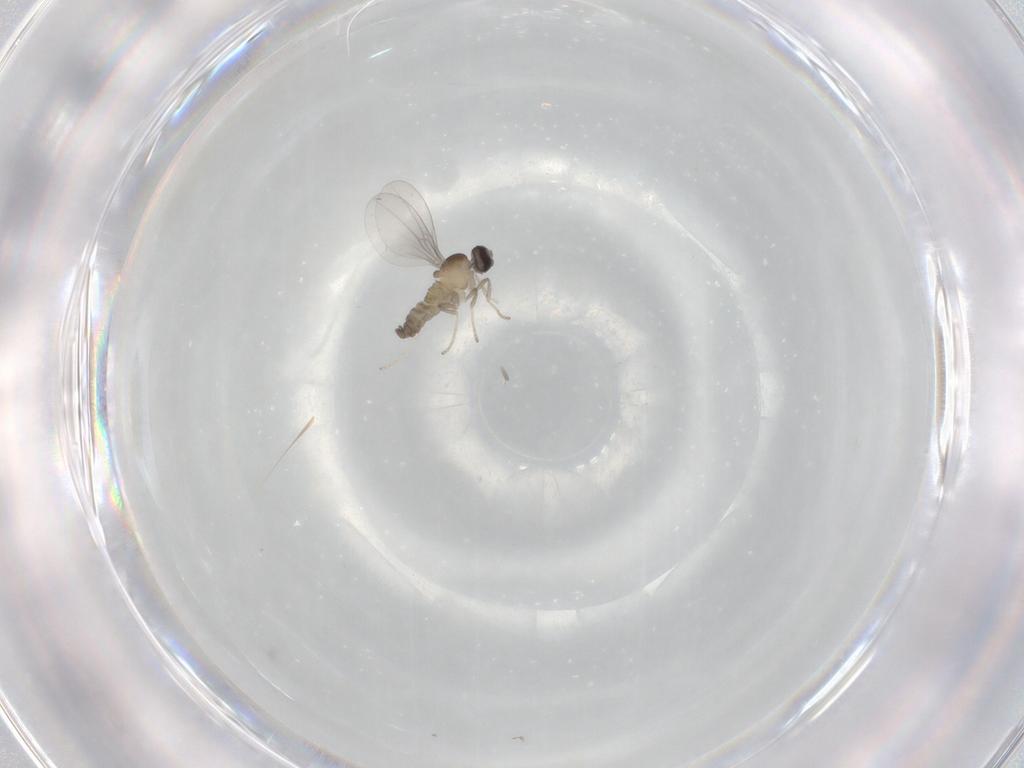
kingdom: Animalia
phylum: Arthropoda
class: Insecta
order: Diptera
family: Cecidomyiidae
